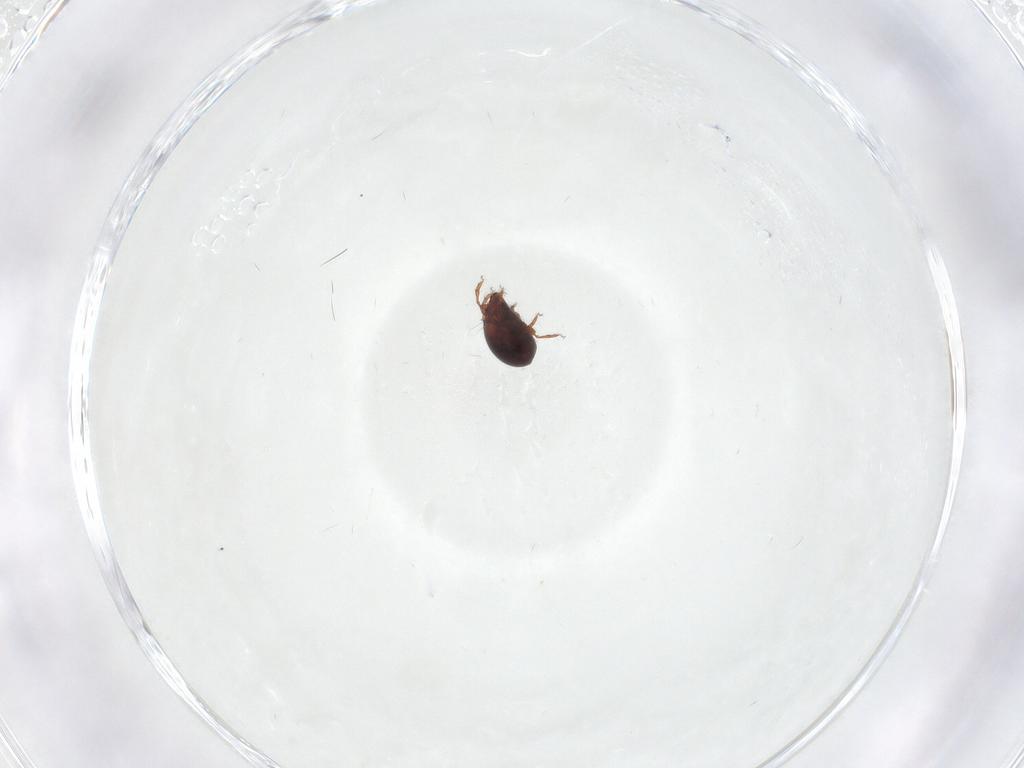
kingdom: Animalia
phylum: Arthropoda
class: Arachnida
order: Sarcoptiformes
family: Ceratozetidae
